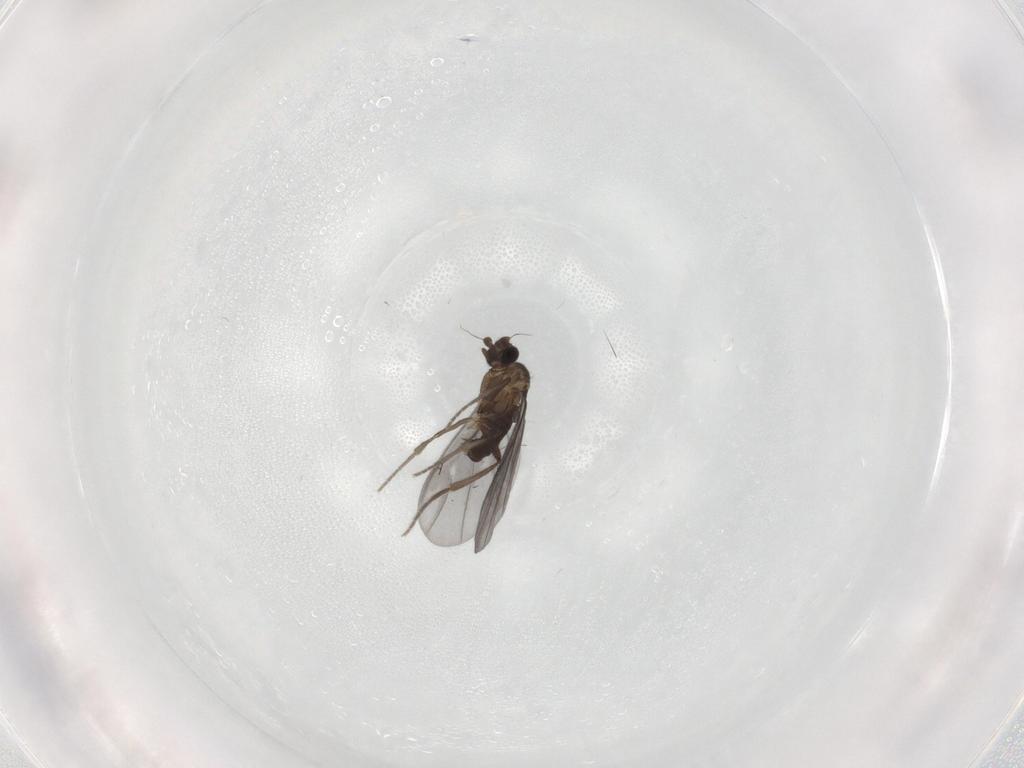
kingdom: Animalia
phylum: Arthropoda
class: Insecta
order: Diptera
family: Phoridae
